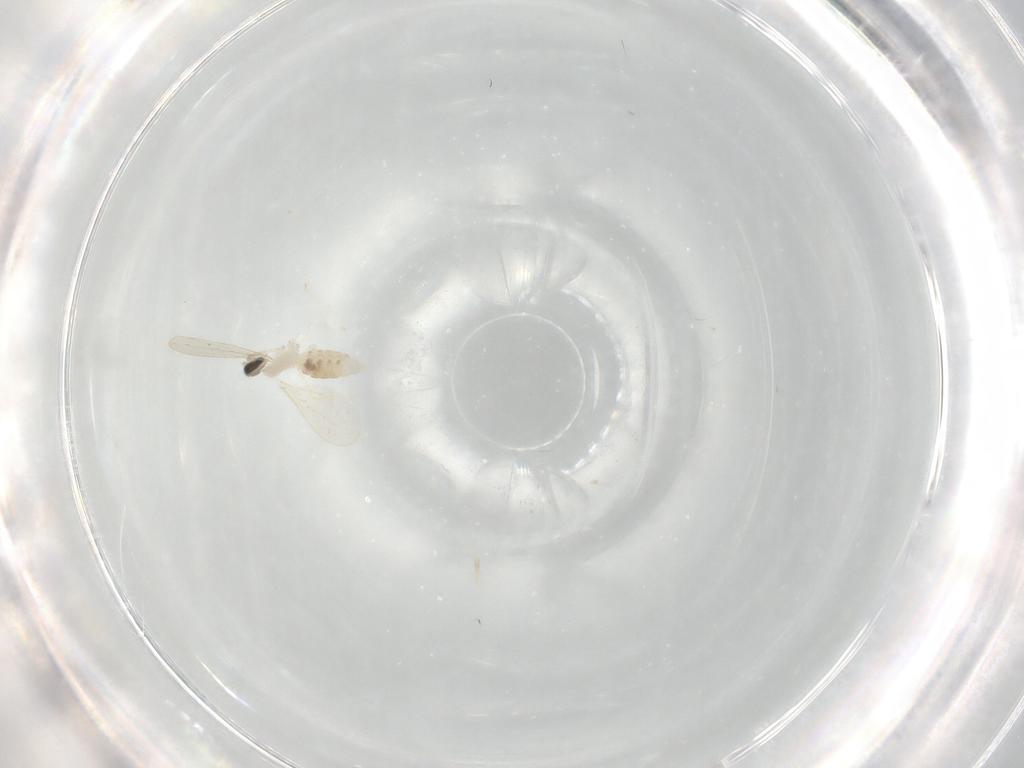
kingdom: Animalia
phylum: Arthropoda
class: Insecta
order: Diptera
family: Cecidomyiidae
